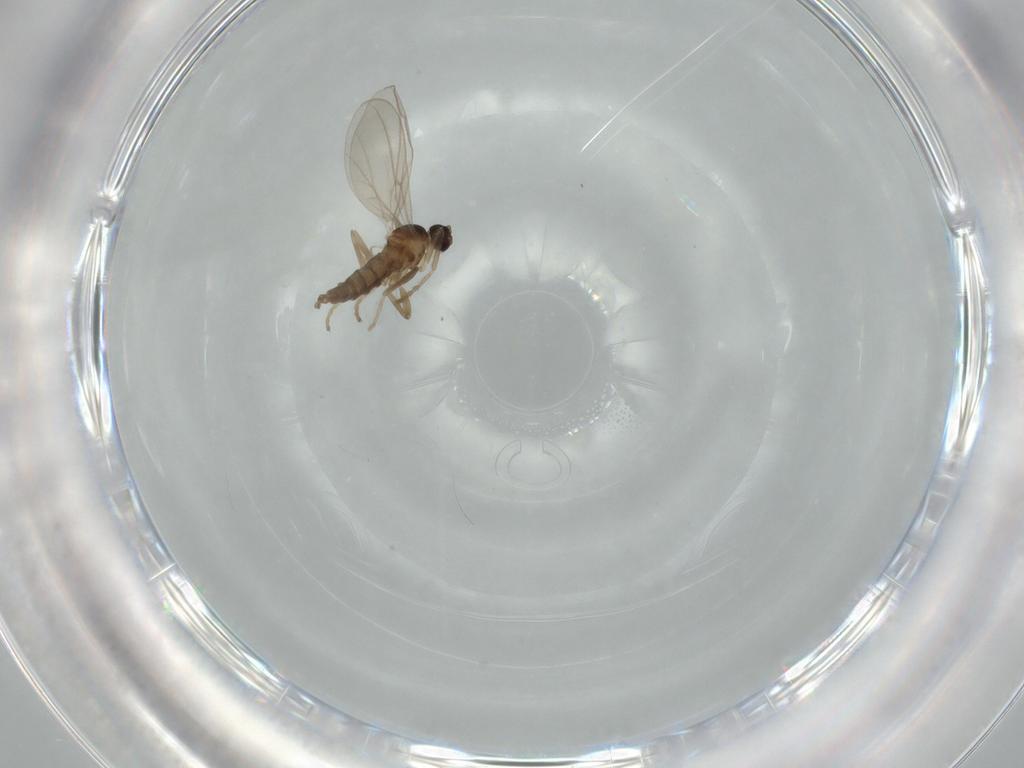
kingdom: Animalia
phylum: Arthropoda
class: Insecta
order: Diptera
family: Cecidomyiidae
